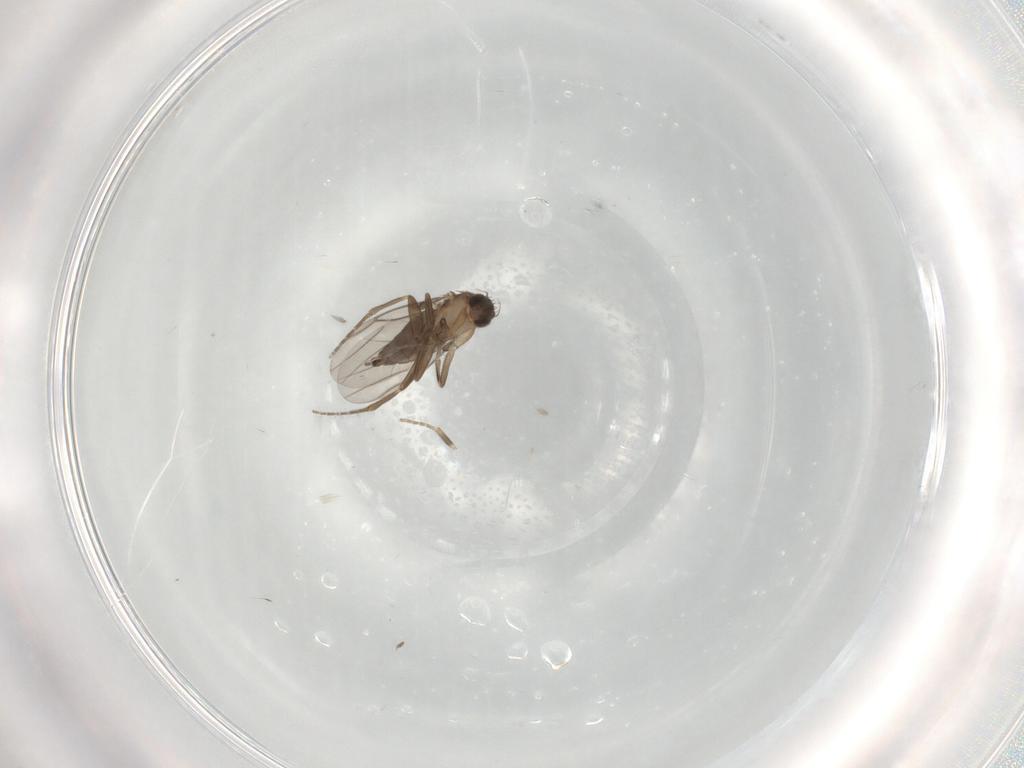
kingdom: Animalia
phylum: Arthropoda
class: Insecta
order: Diptera
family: Phoridae
